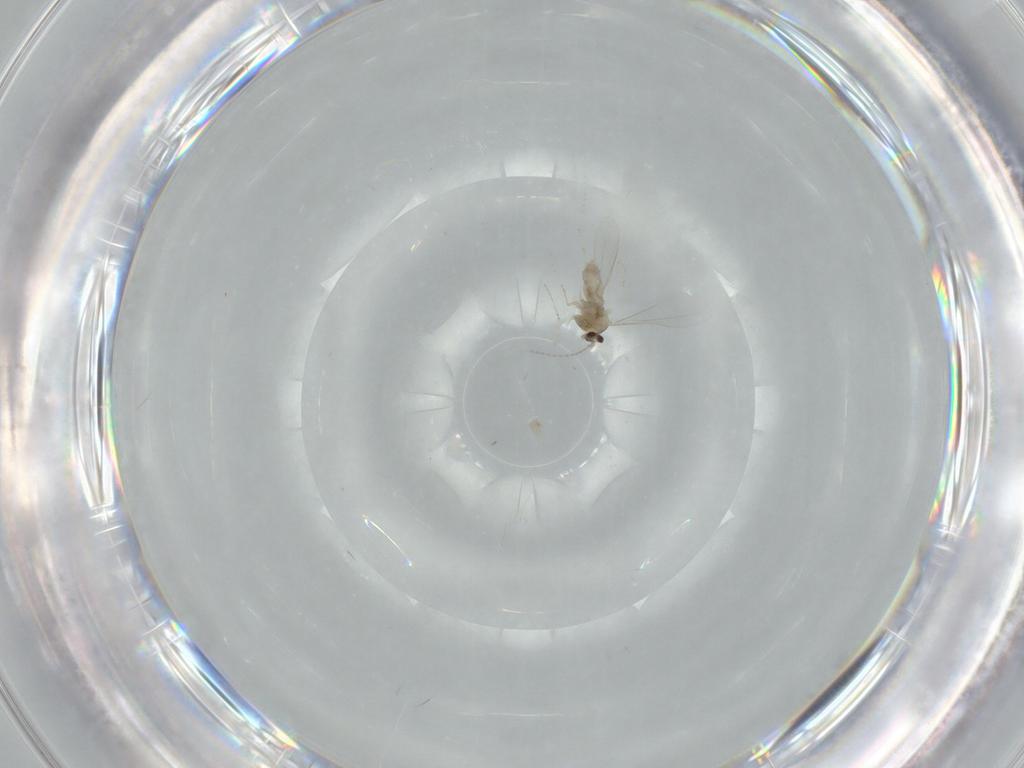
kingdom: Animalia
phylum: Arthropoda
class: Insecta
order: Diptera
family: Cecidomyiidae
